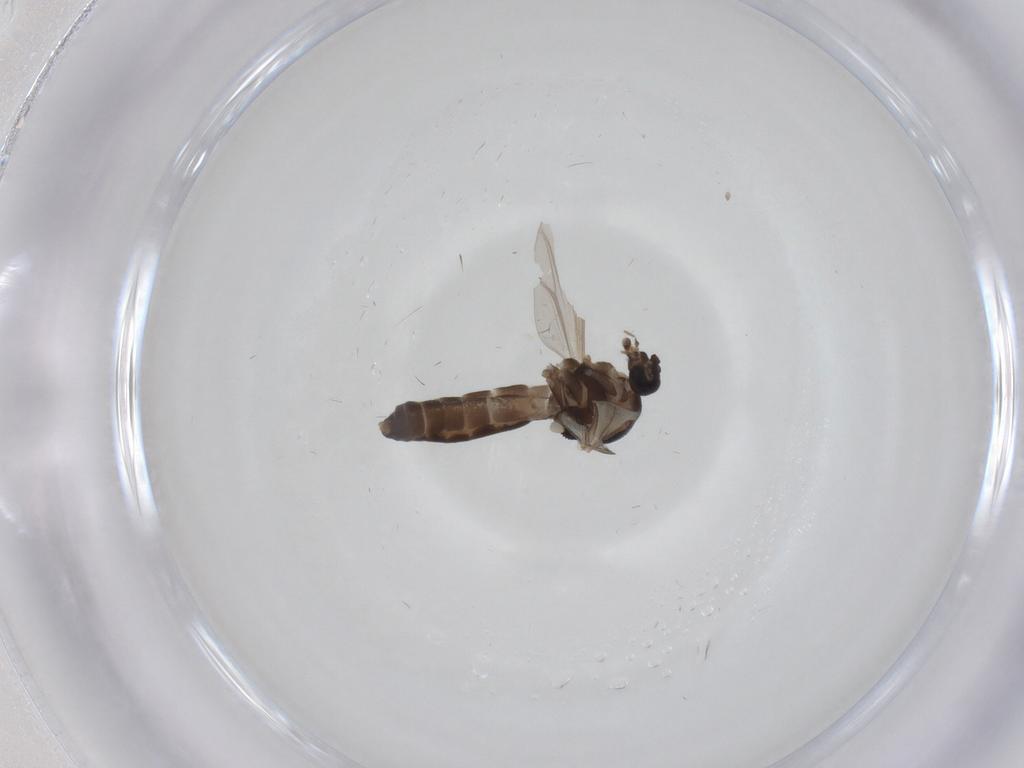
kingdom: Animalia
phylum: Arthropoda
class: Insecta
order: Diptera
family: Ceratopogonidae
